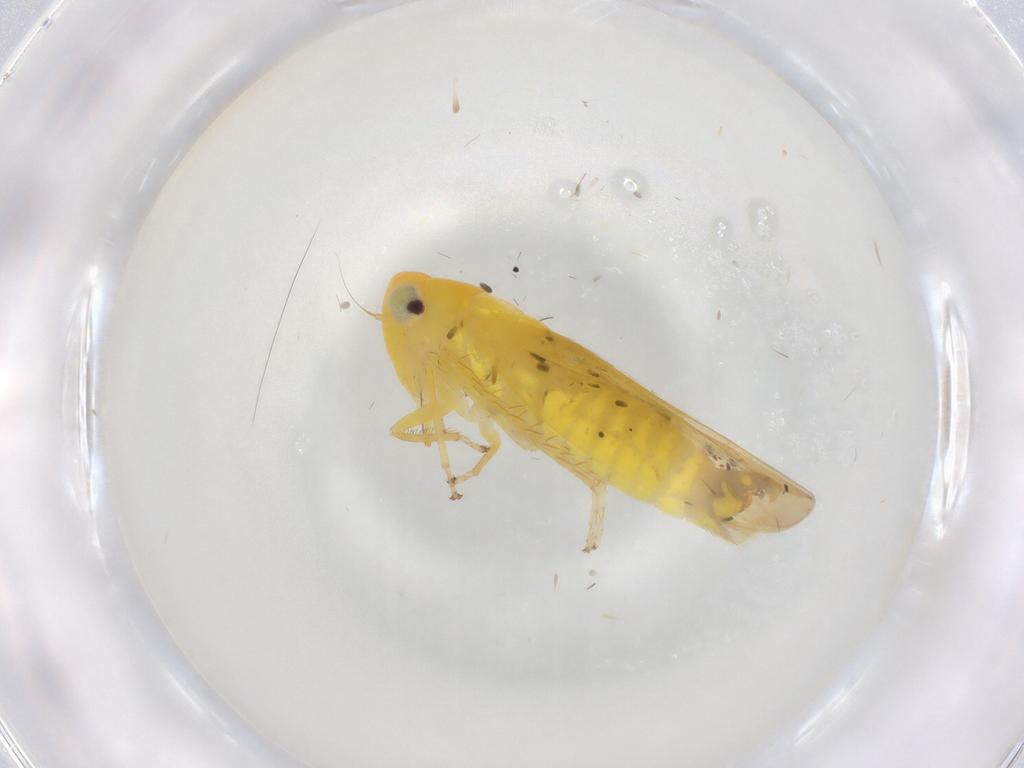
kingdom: Animalia
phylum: Arthropoda
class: Insecta
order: Hemiptera
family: Cicadellidae
